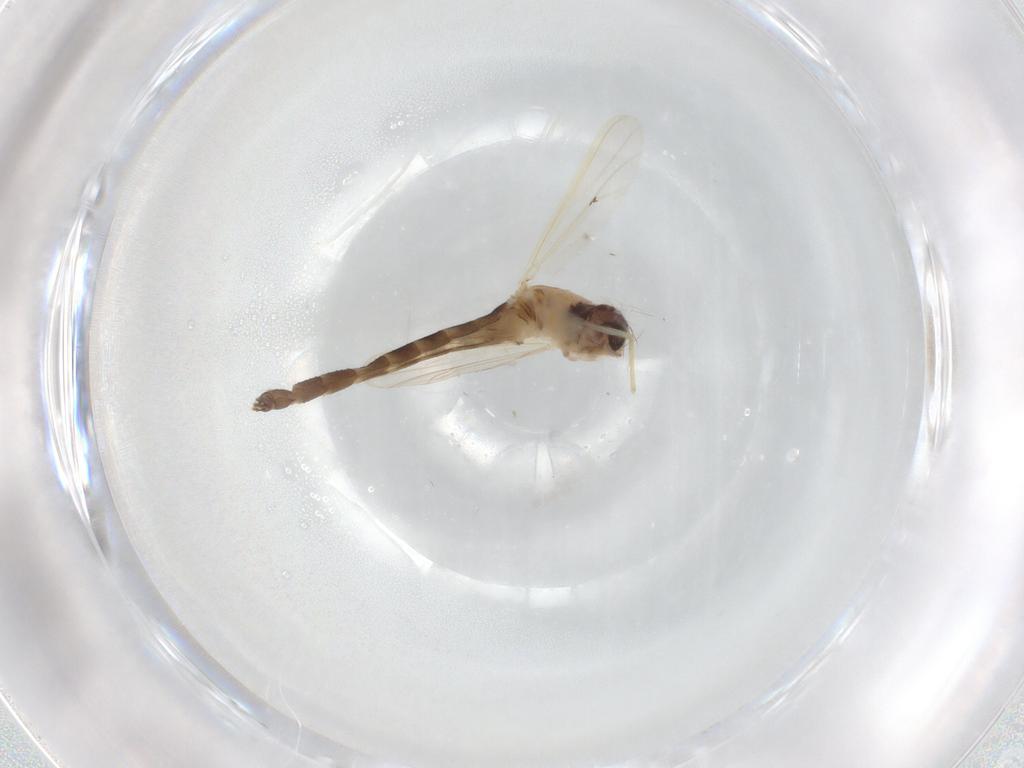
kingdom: Animalia
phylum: Arthropoda
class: Insecta
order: Diptera
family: Chironomidae
